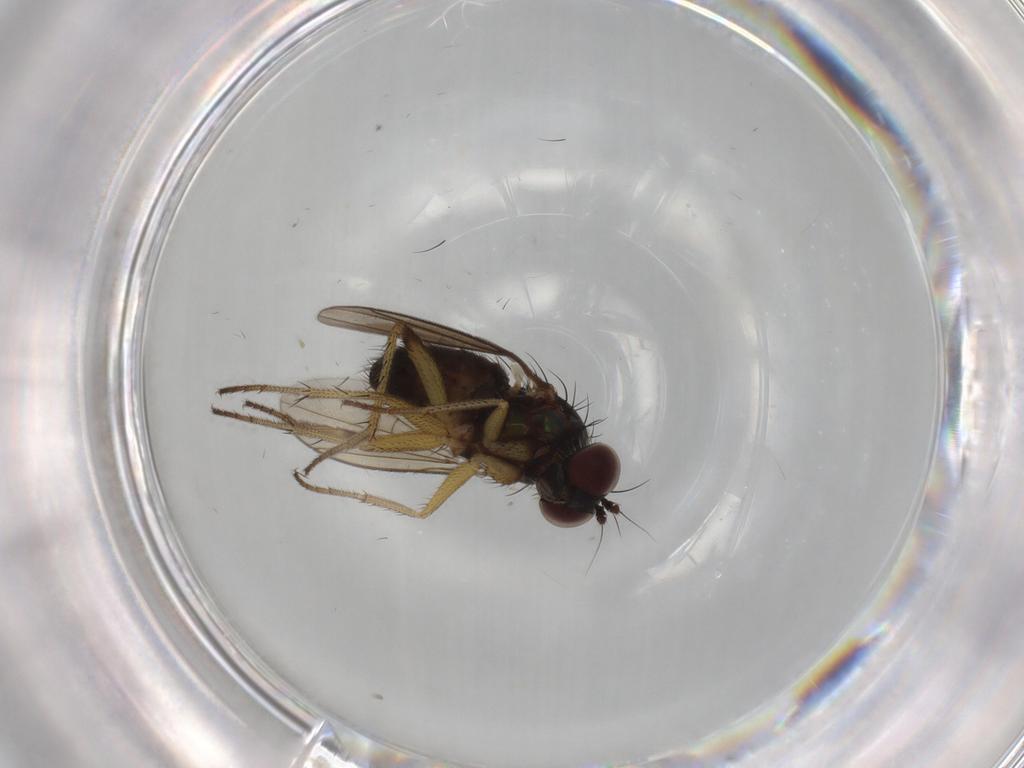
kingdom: Animalia
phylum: Arthropoda
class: Insecta
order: Diptera
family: Dolichopodidae
